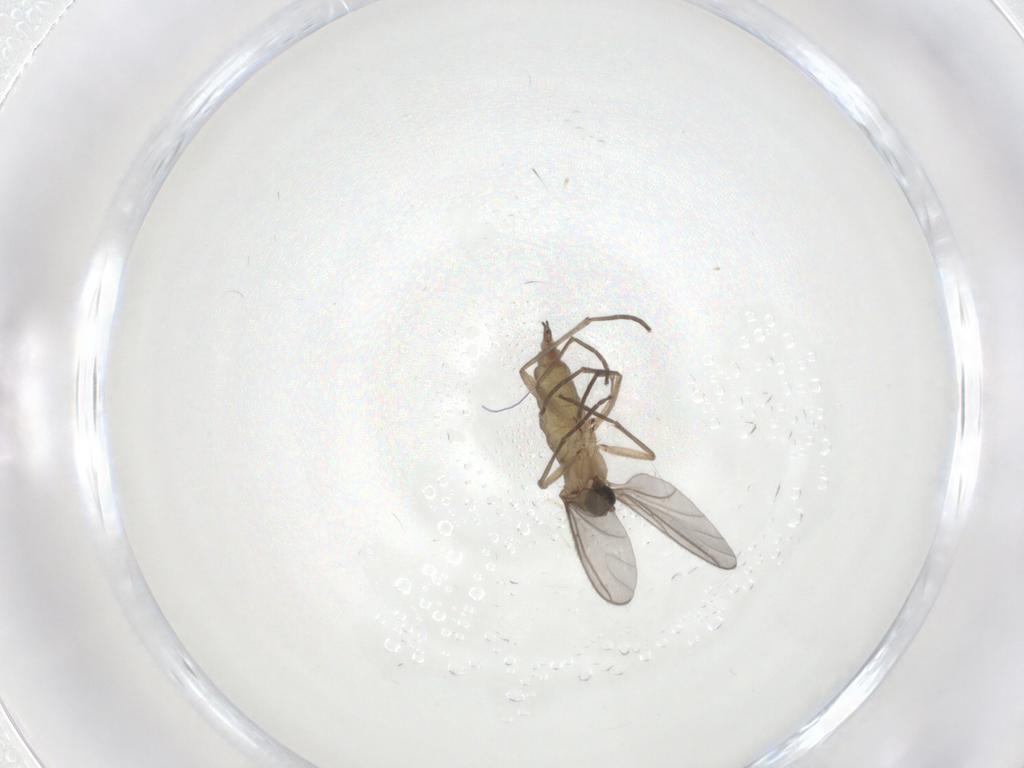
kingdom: Animalia
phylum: Arthropoda
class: Insecta
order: Diptera
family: Sciaridae
